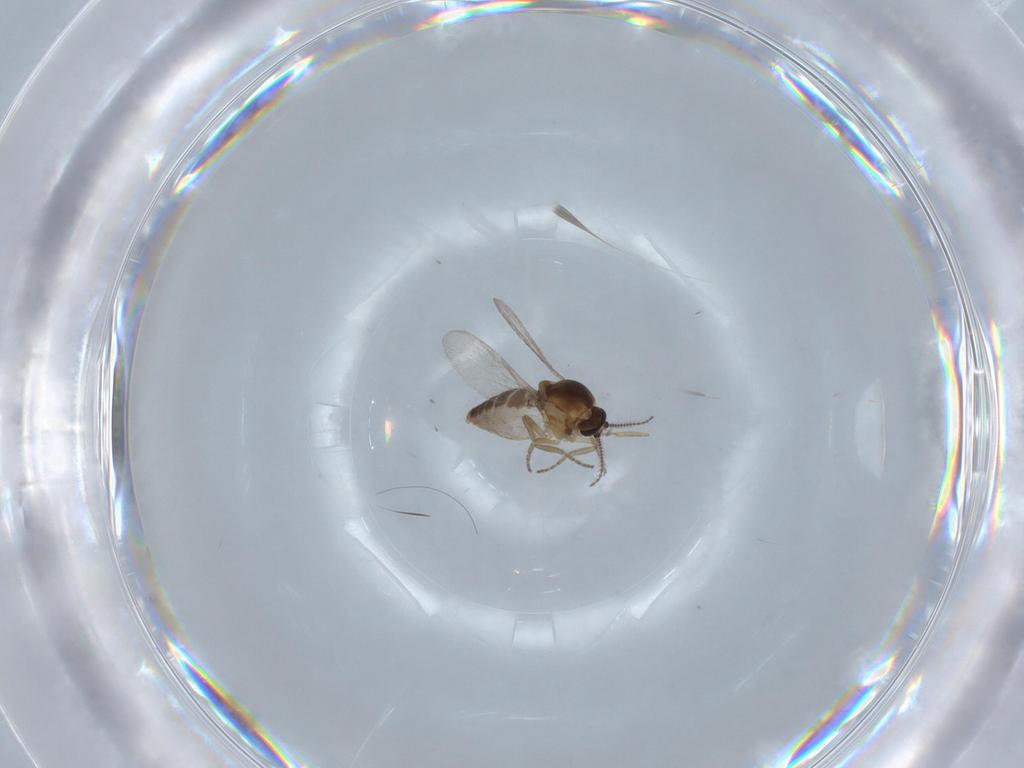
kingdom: Animalia
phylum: Arthropoda
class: Insecta
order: Diptera
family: Ceratopogonidae
